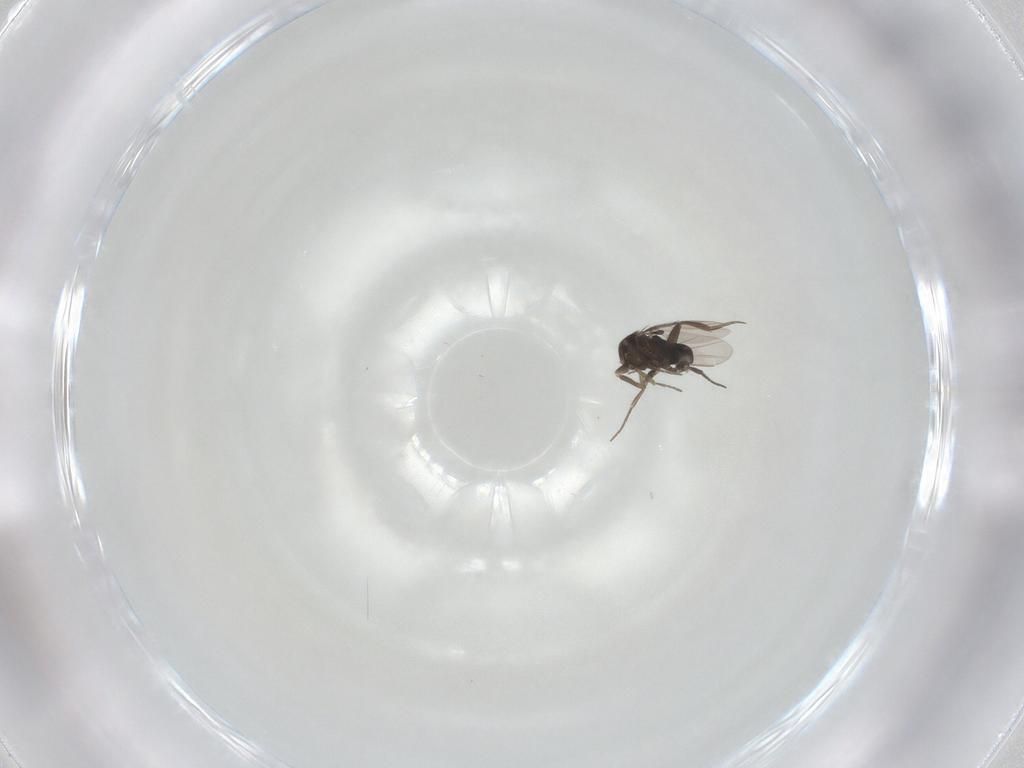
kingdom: Animalia
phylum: Arthropoda
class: Insecta
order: Diptera
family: Phoridae
